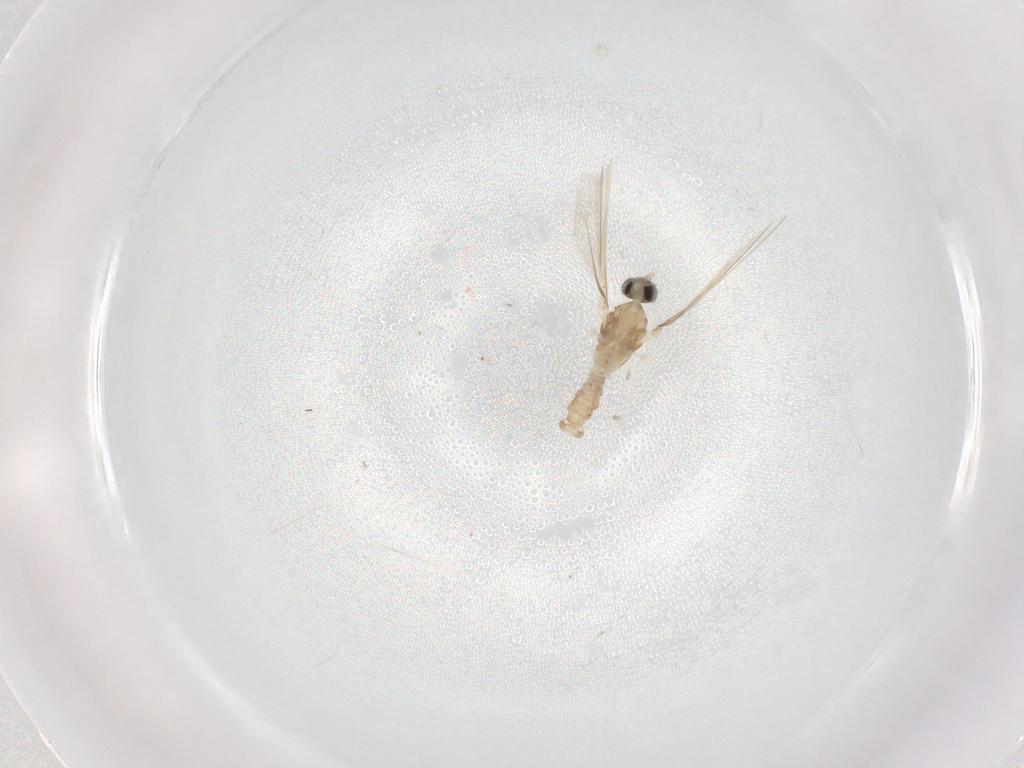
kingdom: Animalia
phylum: Arthropoda
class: Insecta
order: Diptera
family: Cecidomyiidae
